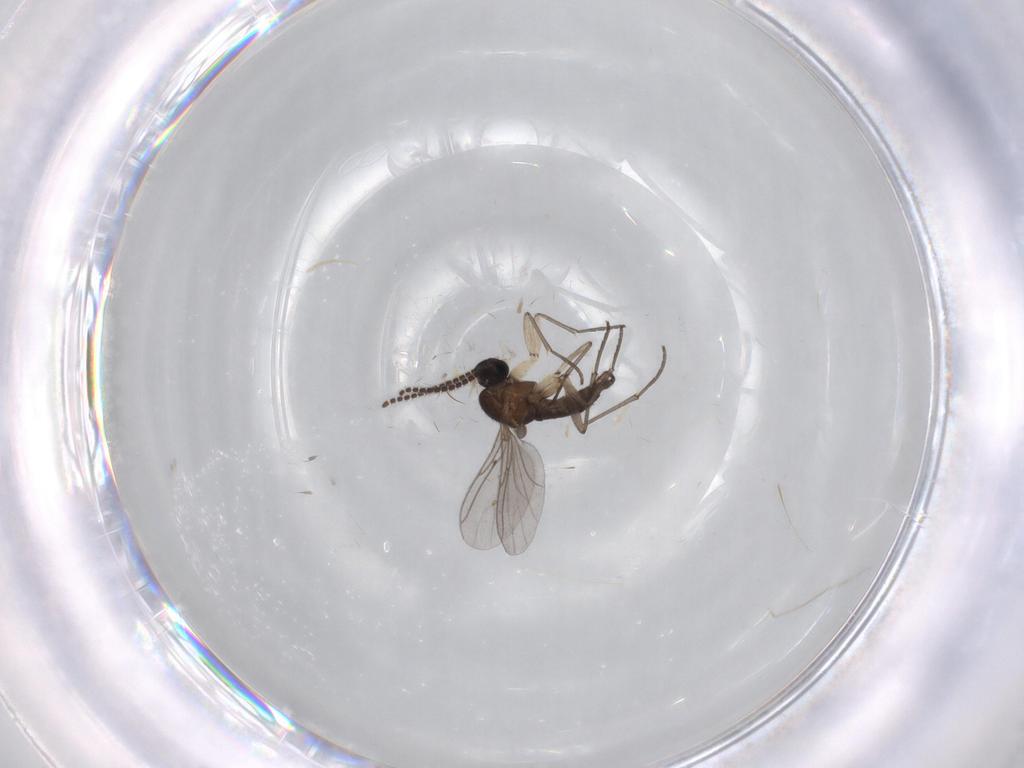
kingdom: Animalia
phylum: Arthropoda
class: Insecta
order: Diptera
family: Sciaridae
